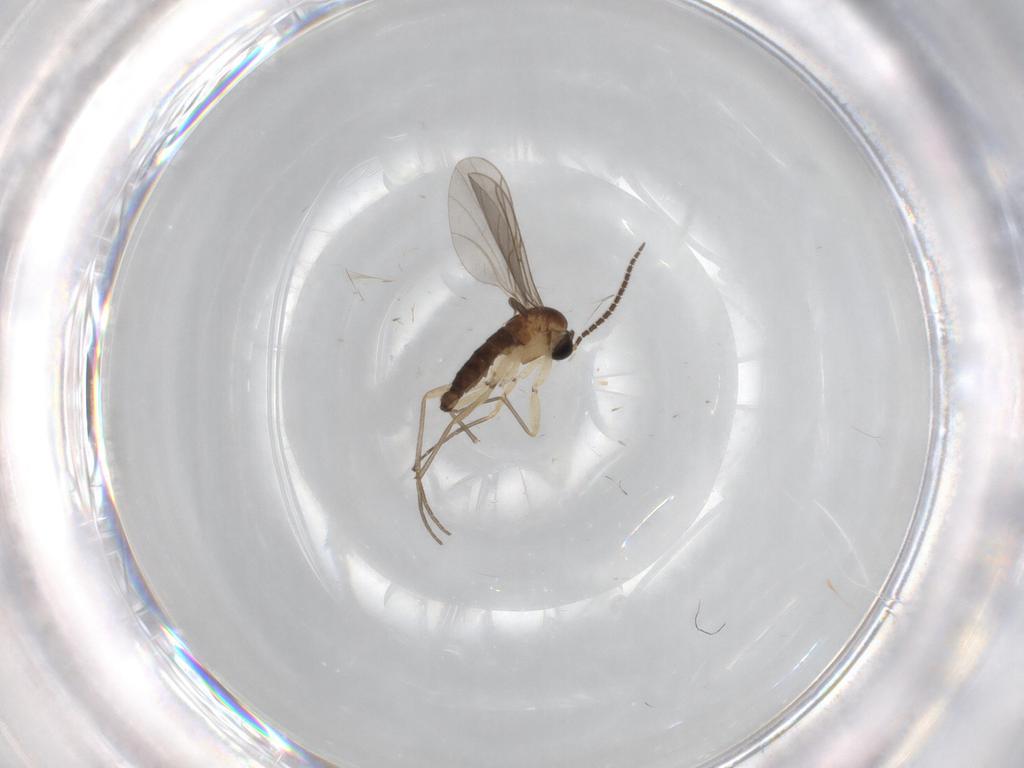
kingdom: Animalia
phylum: Arthropoda
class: Insecta
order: Diptera
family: Sciaridae
